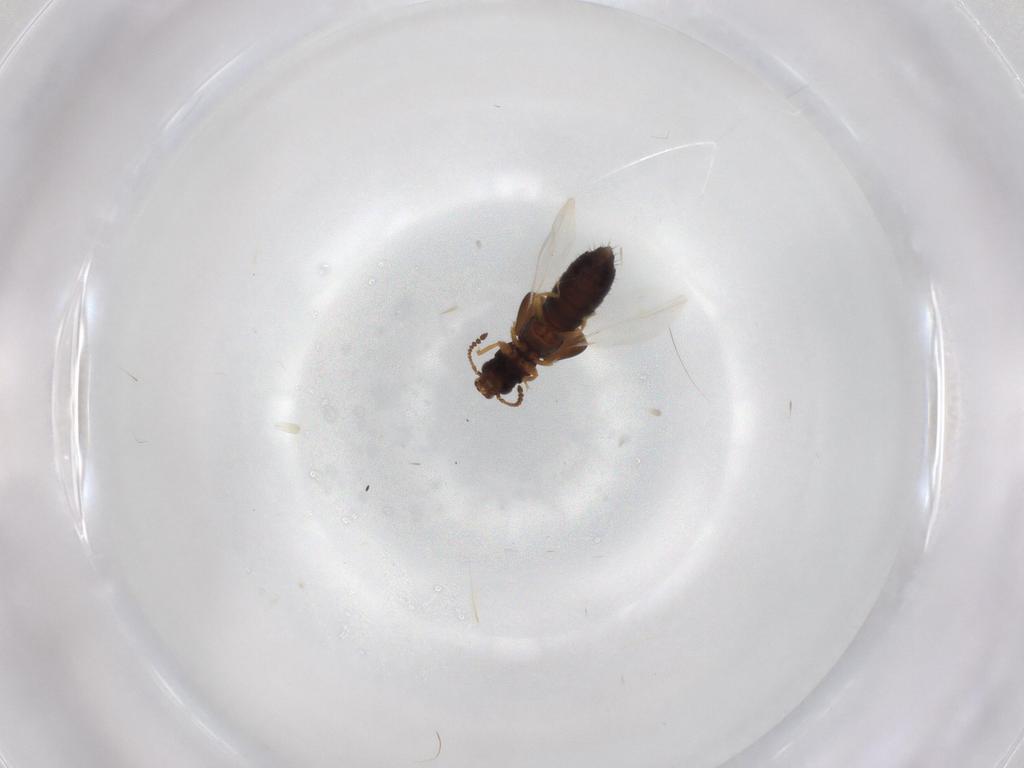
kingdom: Animalia
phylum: Arthropoda
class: Insecta
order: Coleoptera
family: Staphylinidae
